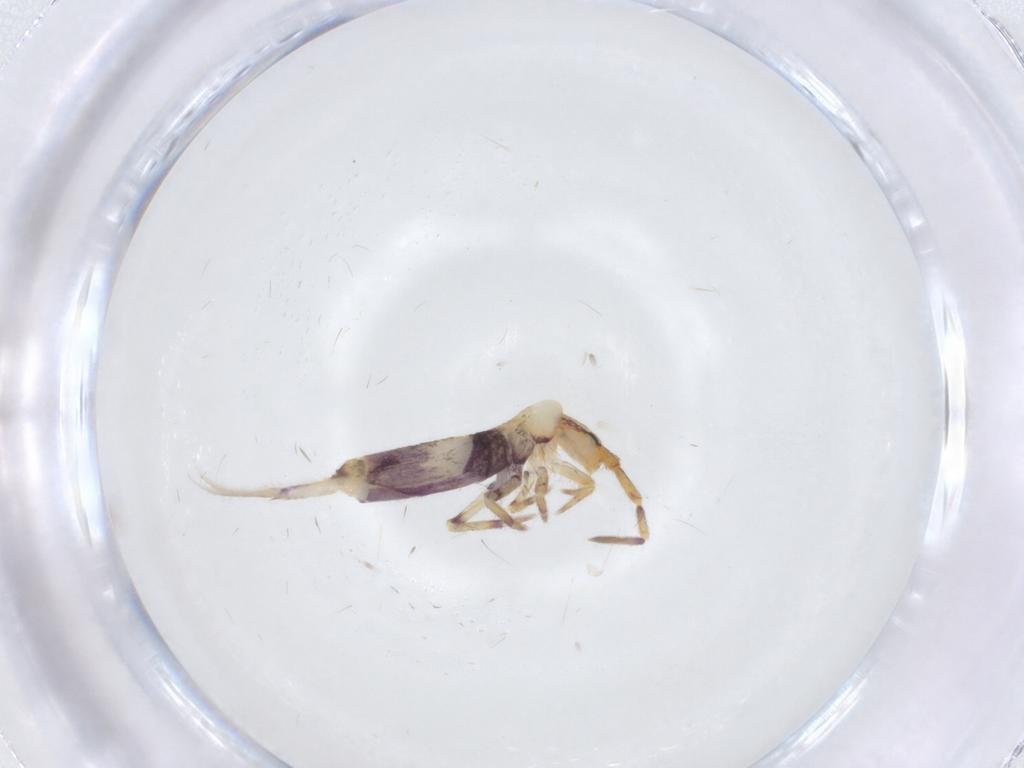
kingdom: Animalia
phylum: Arthropoda
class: Collembola
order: Entomobryomorpha
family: Entomobryidae
